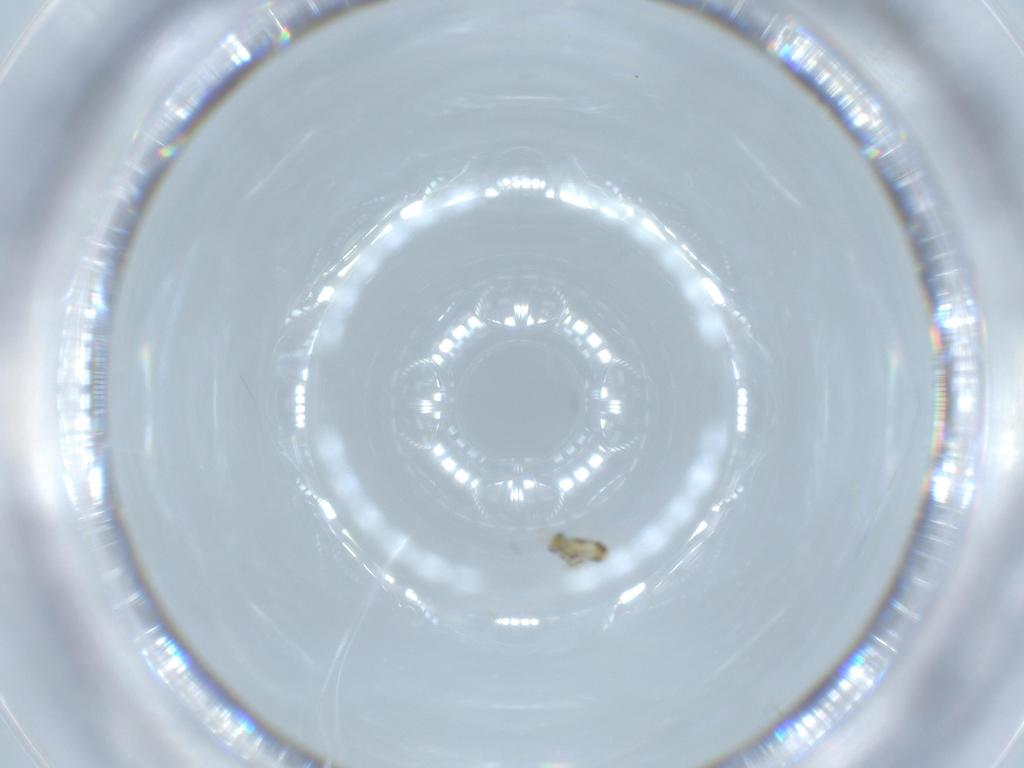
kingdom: Animalia
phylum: Arthropoda
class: Insecta
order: Hymenoptera
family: Trichogrammatidae
